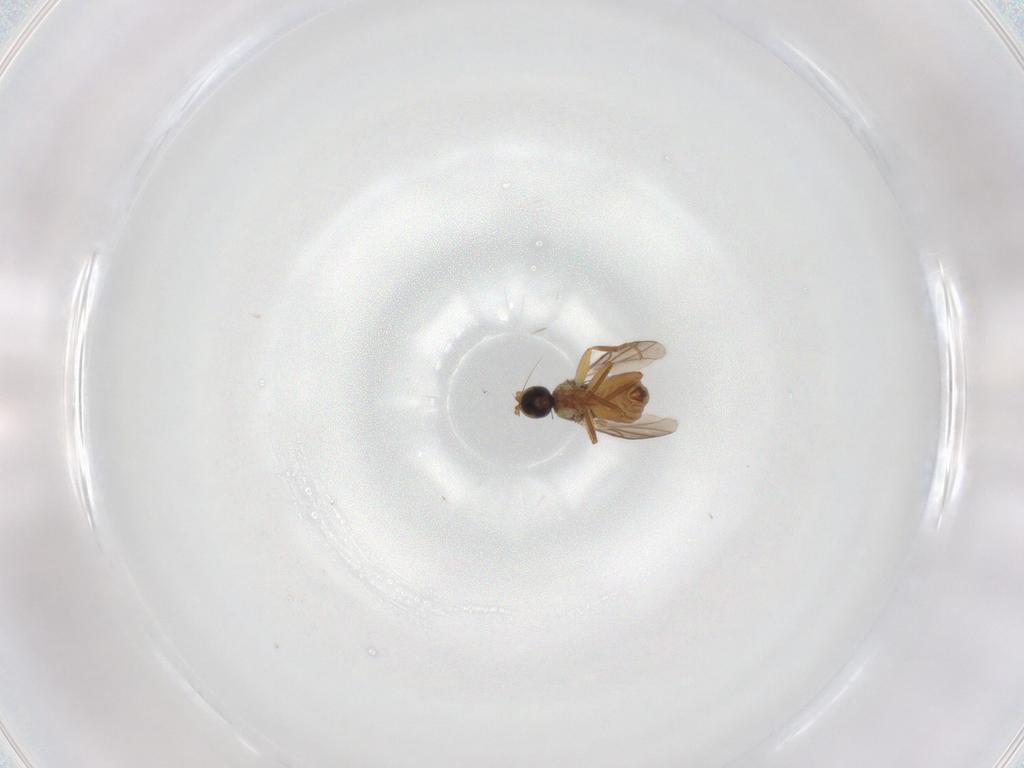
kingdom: Animalia
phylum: Arthropoda
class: Insecta
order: Diptera
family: Hybotidae
